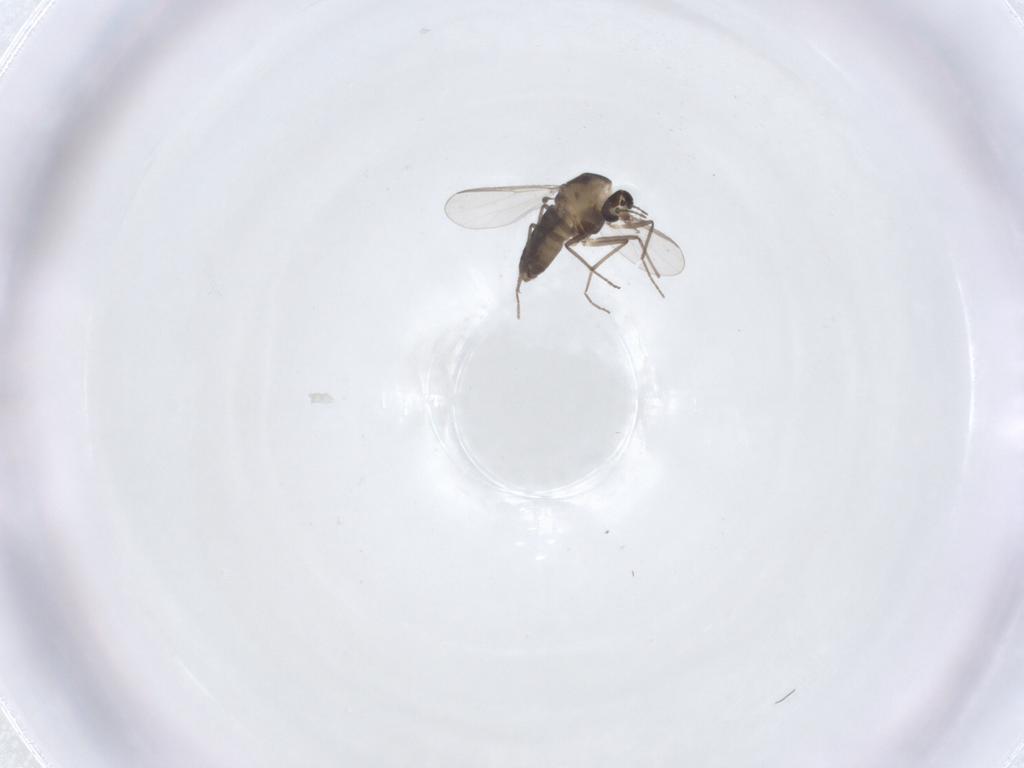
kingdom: Animalia
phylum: Arthropoda
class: Insecta
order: Diptera
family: Chironomidae
